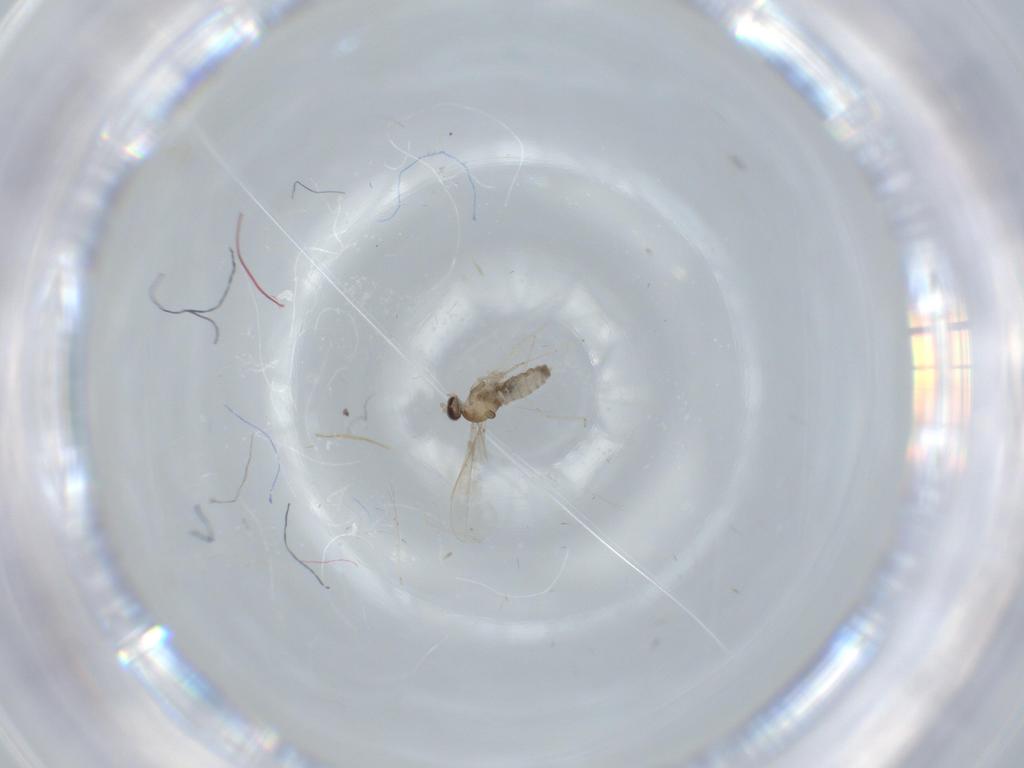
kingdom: Animalia
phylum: Arthropoda
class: Insecta
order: Diptera
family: Cecidomyiidae
